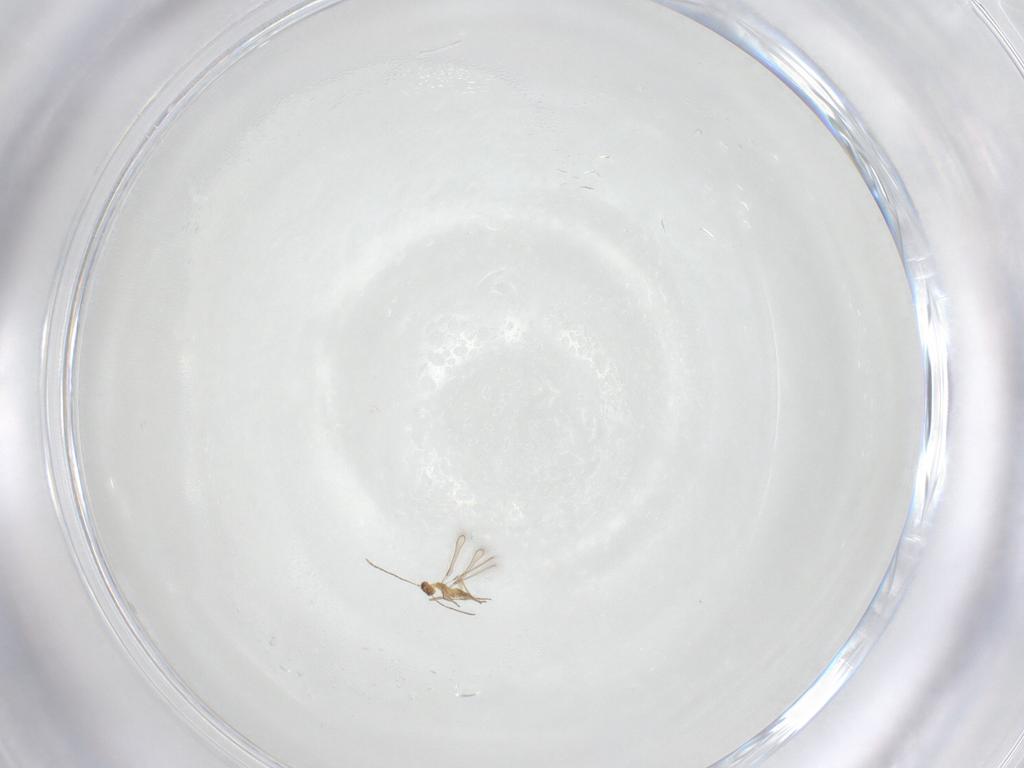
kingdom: Animalia
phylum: Arthropoda
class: Insecta
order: Hymenoptera
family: Mymaridae
